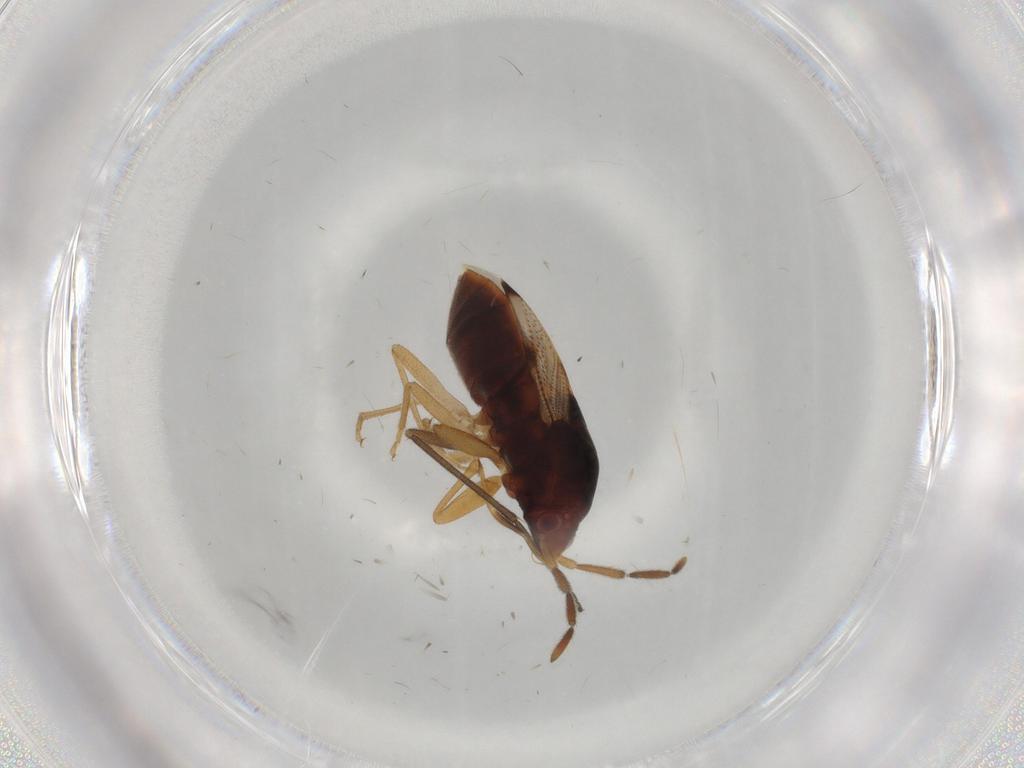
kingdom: Animalia
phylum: Arthropoda
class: Insecta
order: Hemiptera
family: Rhyparochromidae
